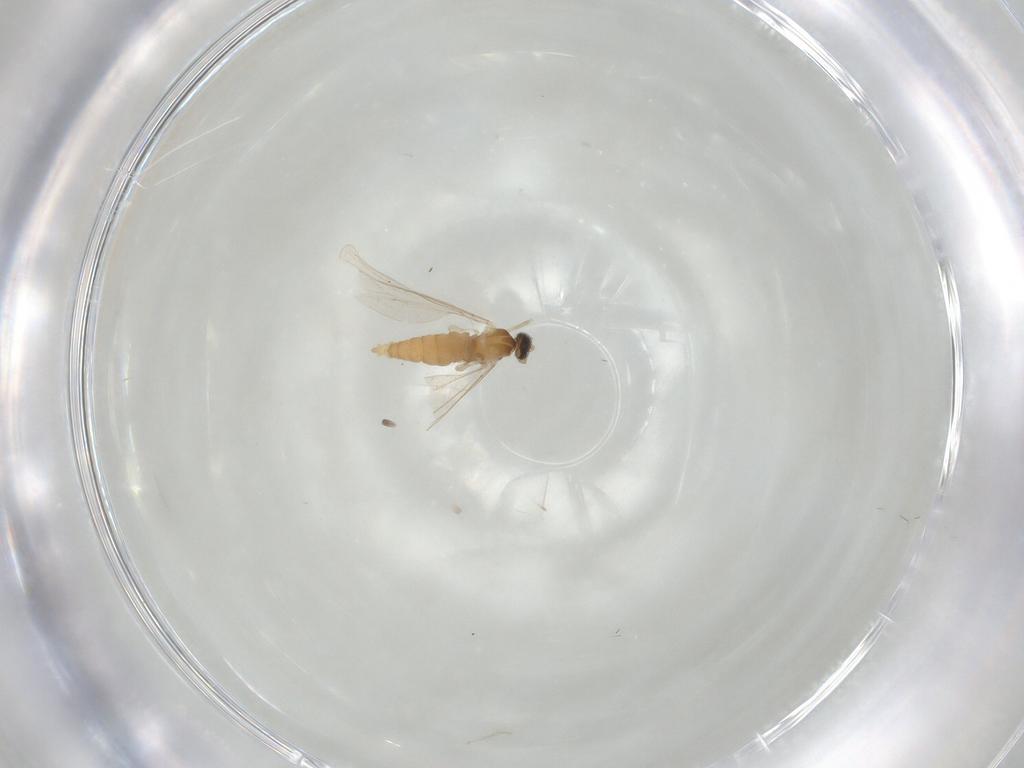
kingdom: Animalia
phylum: Arthropoda
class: Insecta
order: Diptera
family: Cecidomyiidae
